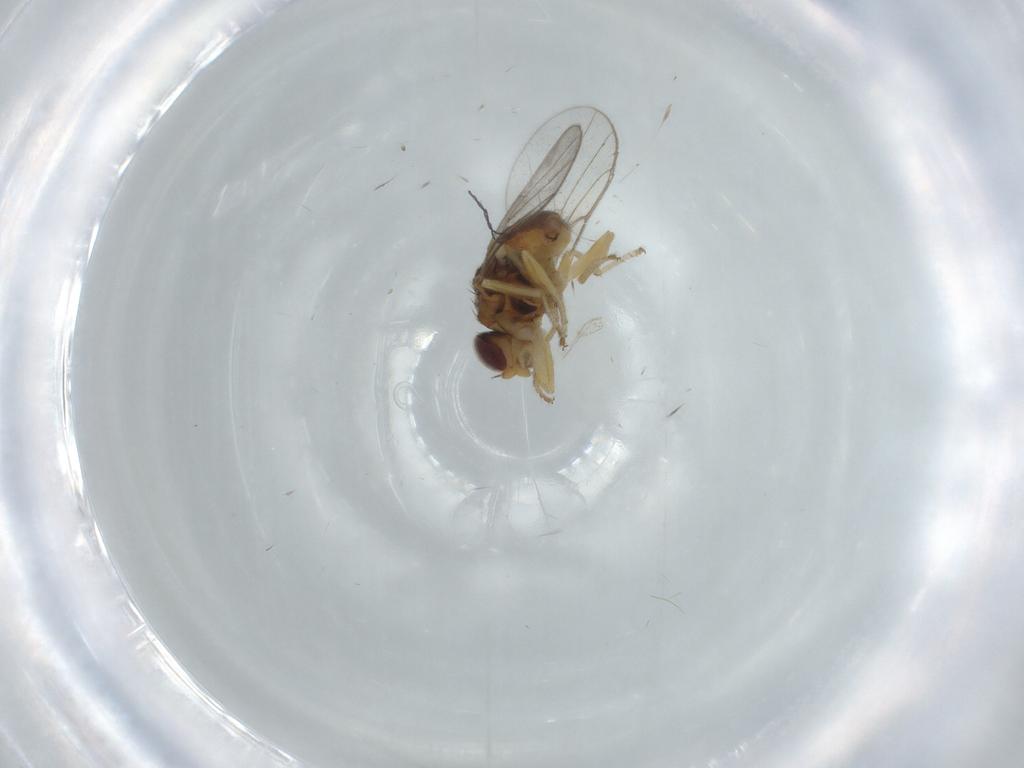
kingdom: Animalia
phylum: Arthropoda
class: Insecta
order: Diptera
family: Chloropidae
